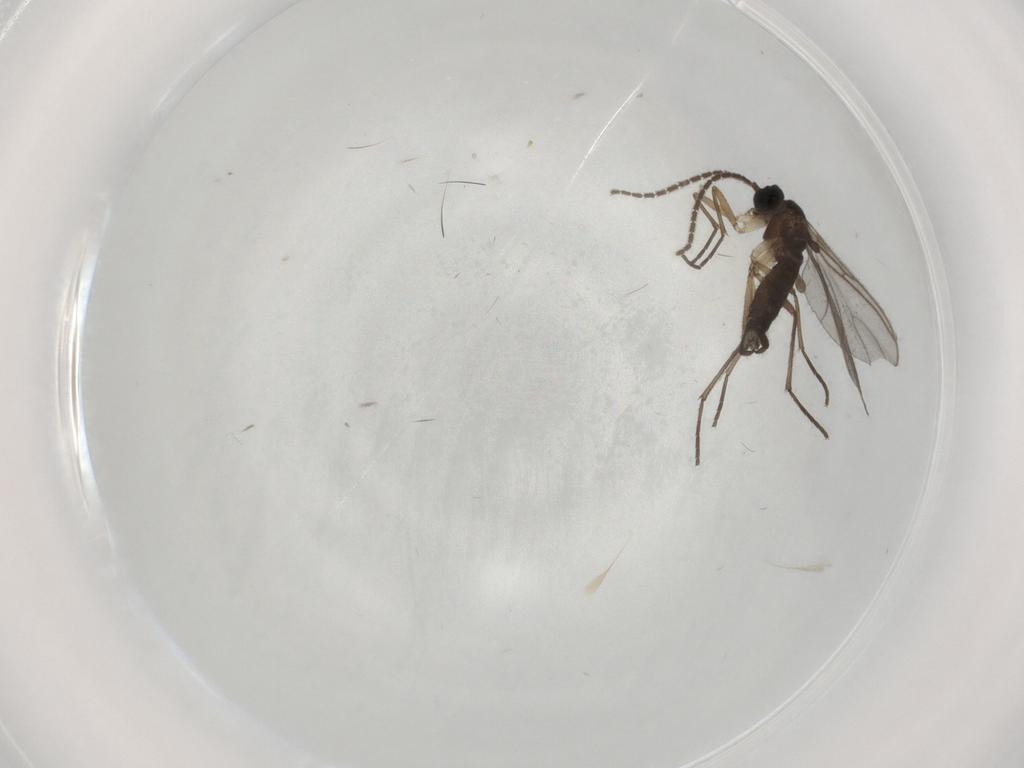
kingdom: Animalia
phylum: Arthropoda
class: Insecta
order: Diptera
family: Sciaridae
